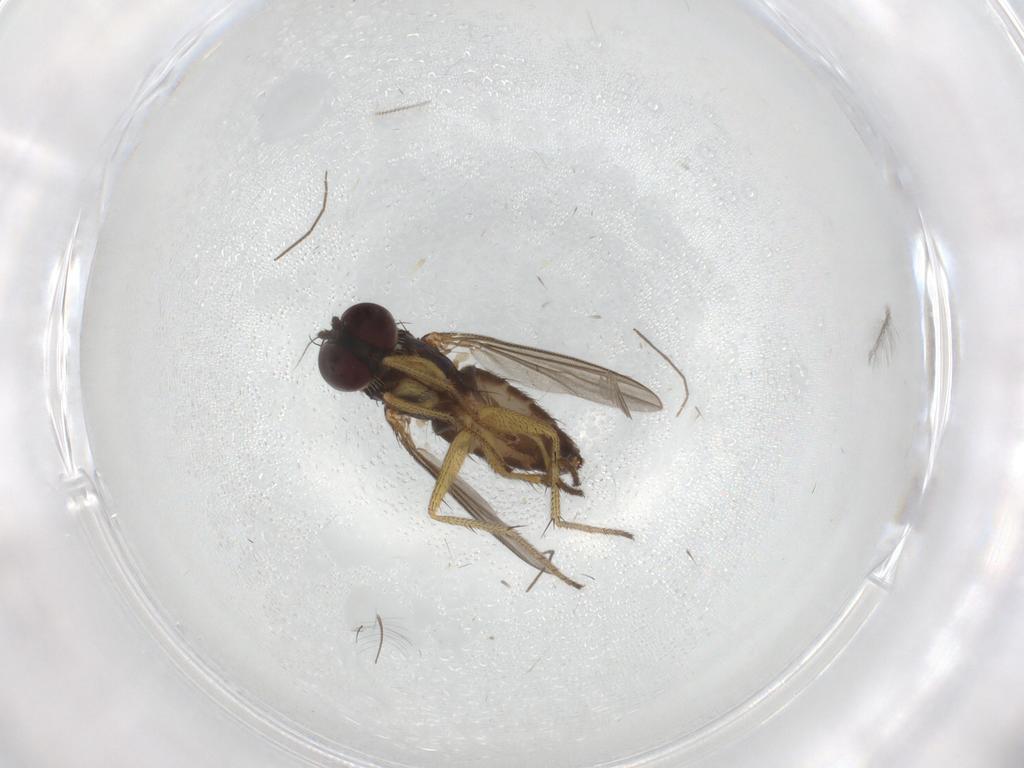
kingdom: Animalia
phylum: Arthropoda
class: Insecta
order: Diptera
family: Chironomidae
